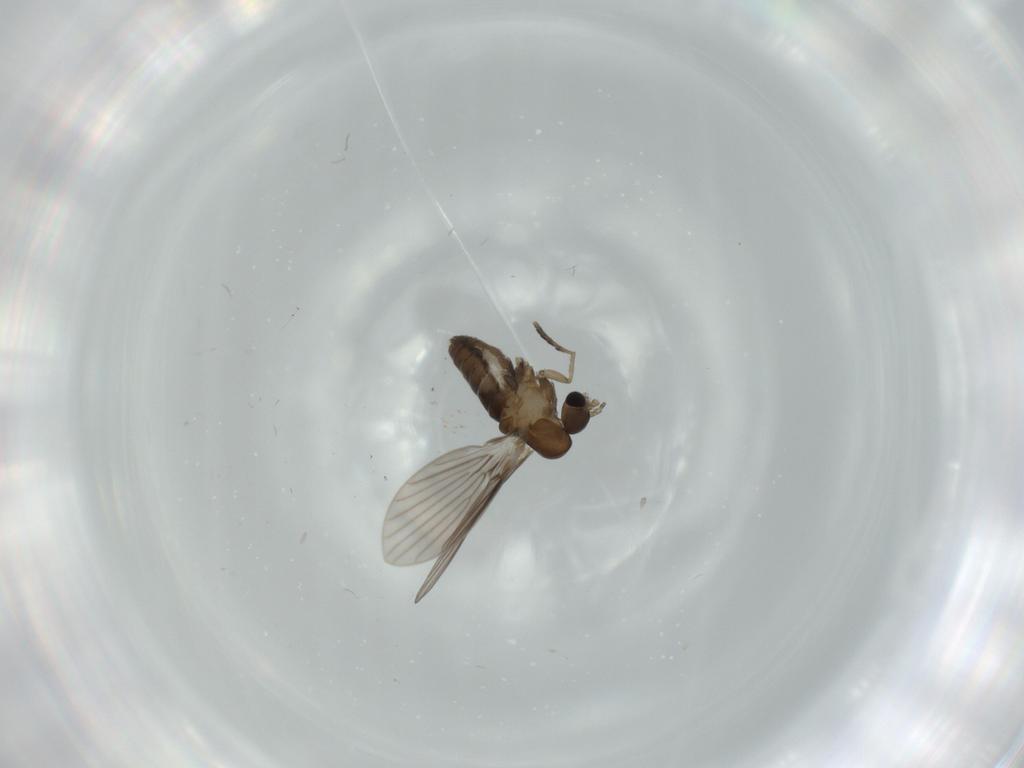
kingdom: Animalia
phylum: Arthropoda
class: Insecta
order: Diptera
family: Psychodidae
